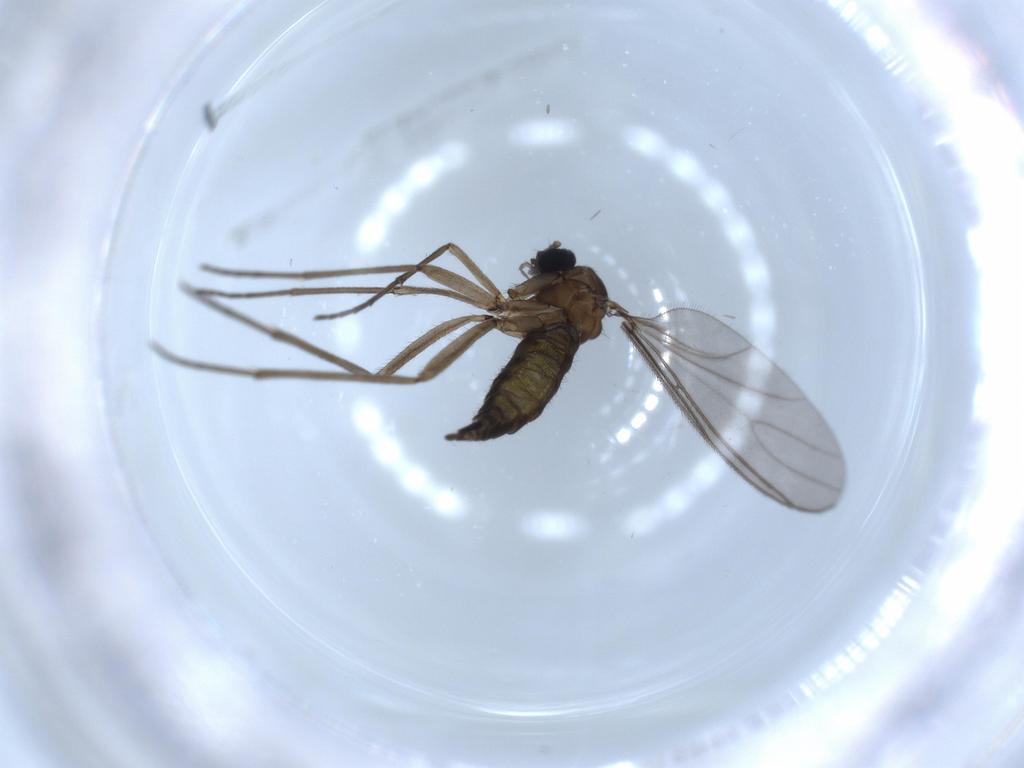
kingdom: Animalia
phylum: Arthropoda
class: Insecta
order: Diptera
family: Sciaridae
